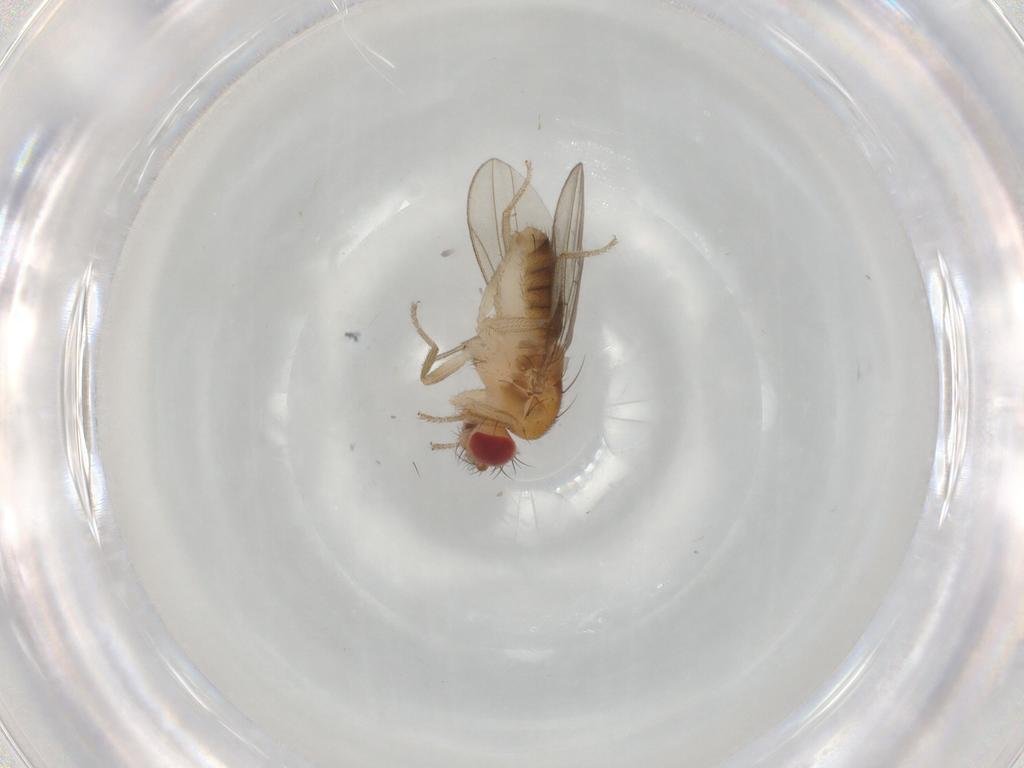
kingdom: Animalia
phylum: Arthropoda
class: Insecta
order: Diptera
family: Drosophilidae
